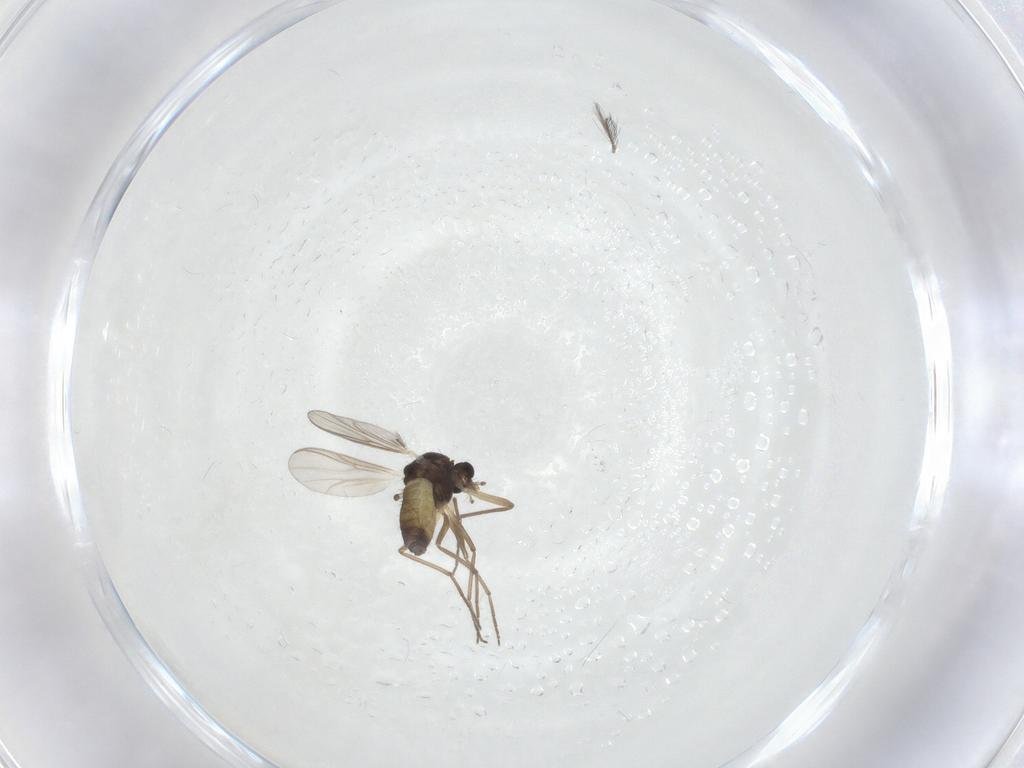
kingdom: Animalia
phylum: Arthropoda
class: Insecta
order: Diptera
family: Chironomidae
